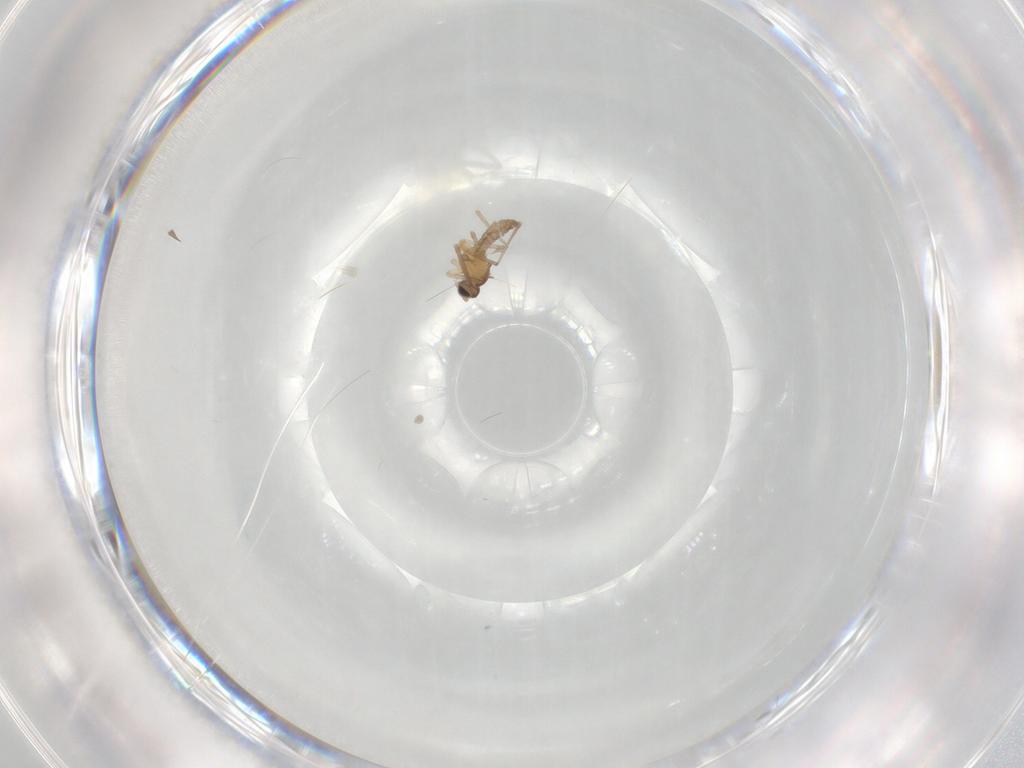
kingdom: Animalia
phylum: Arthropoda
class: Insecta
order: Diptera
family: Cecidomyiidae
